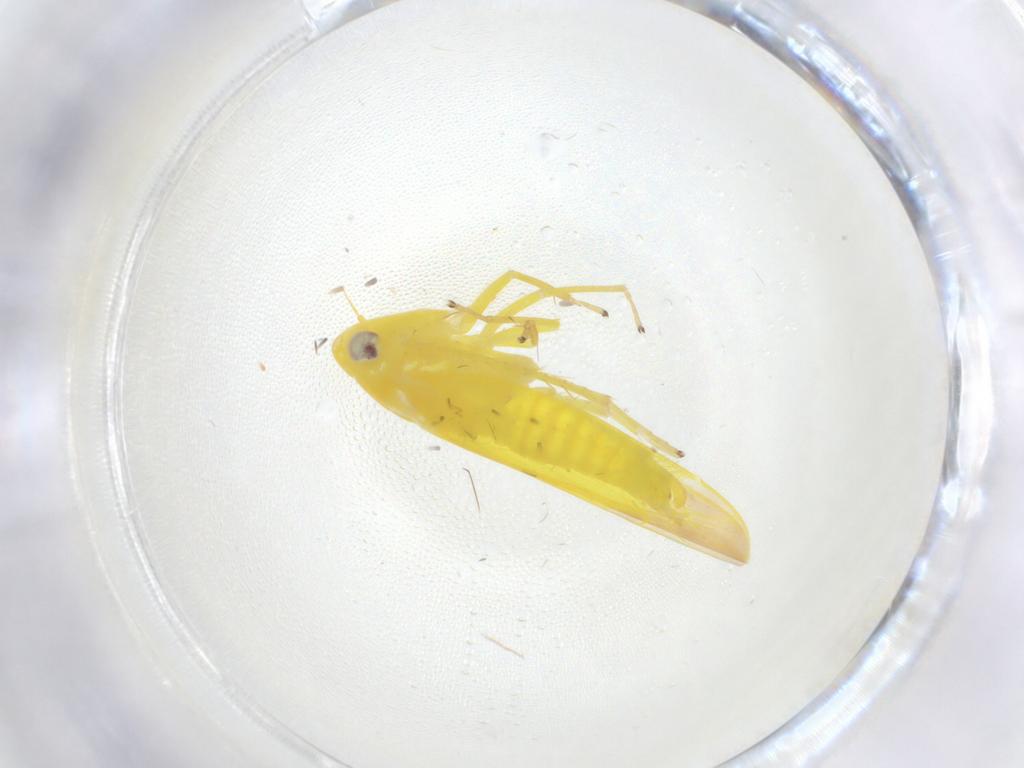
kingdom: Animalia
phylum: Arthropoda
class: Insecta
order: Hemiptera
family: Cicadellidae
